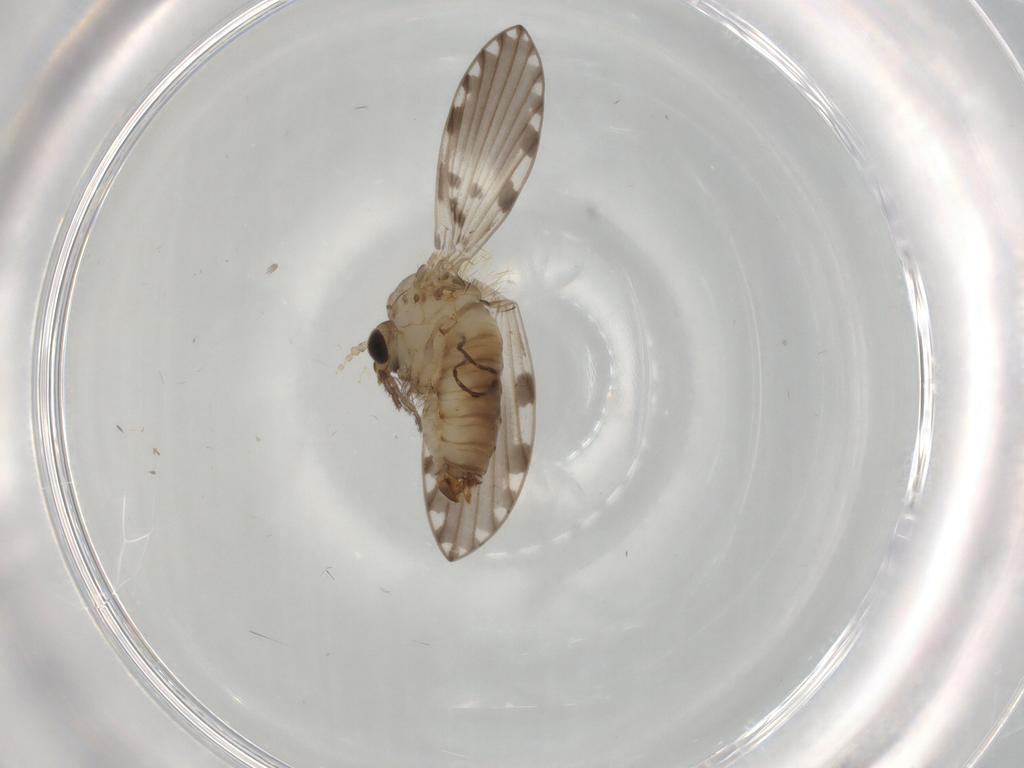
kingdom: Animalia
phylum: Arthropoda
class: Insecta
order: Diptera
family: Psychodidae
